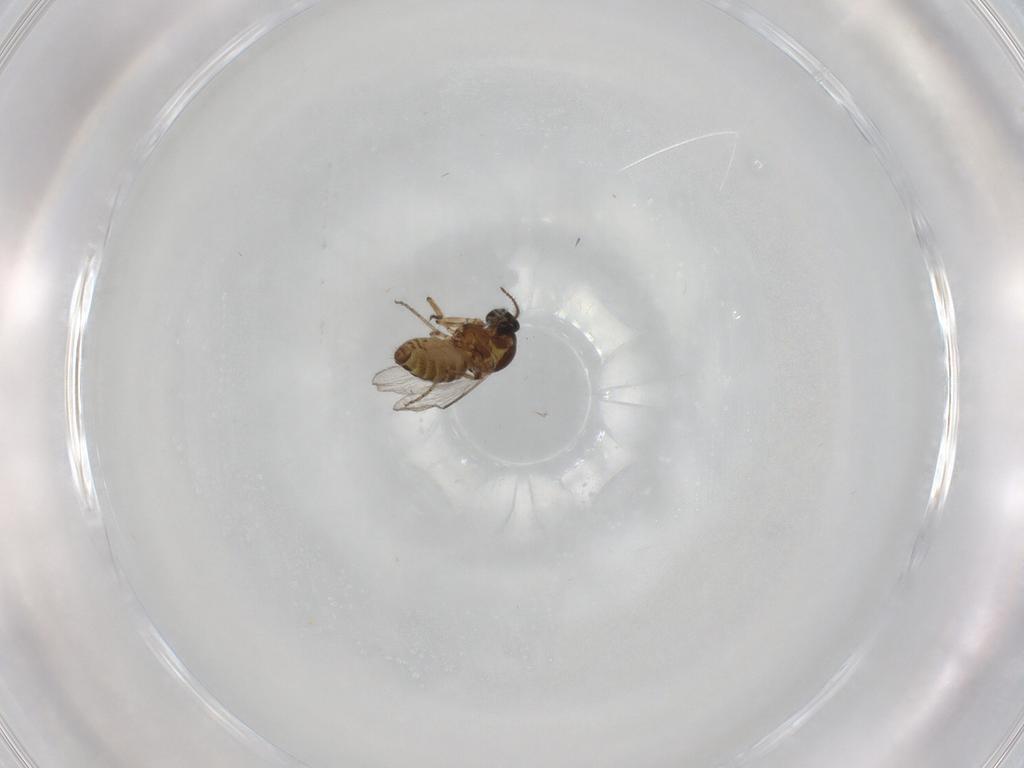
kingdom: Animalia
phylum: Arthropoda
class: Insecta
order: Diptera
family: Ceratopogonidae
